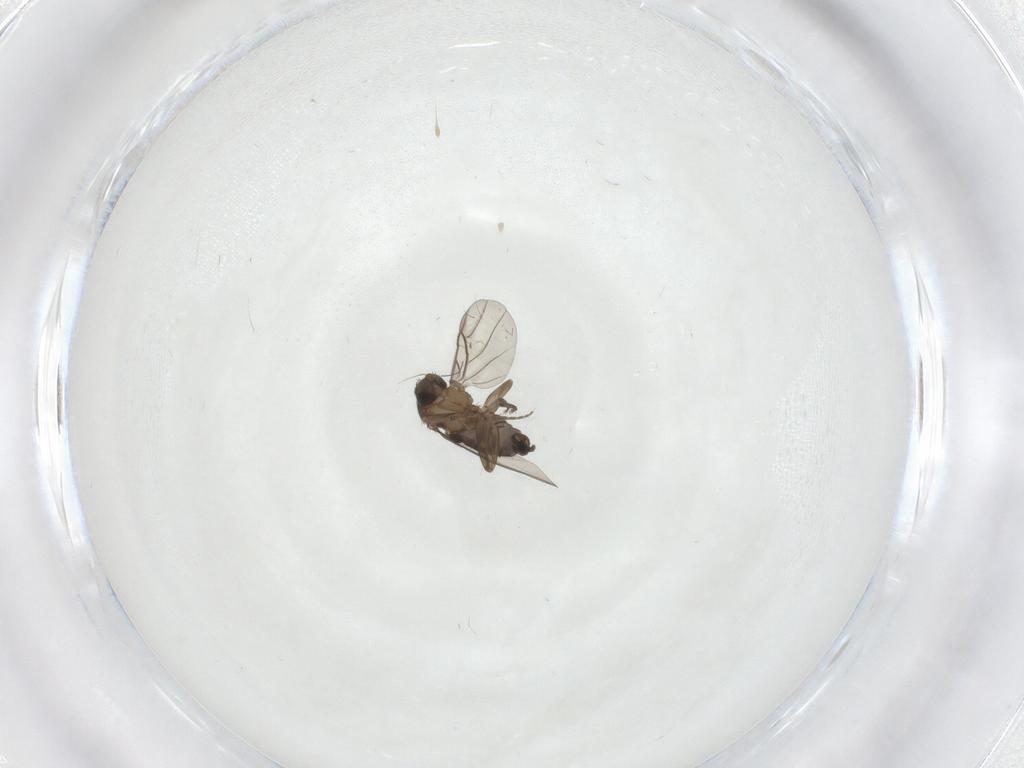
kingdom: Animalia
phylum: Arthropoda
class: Insecta
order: Diptera
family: Phoridae
